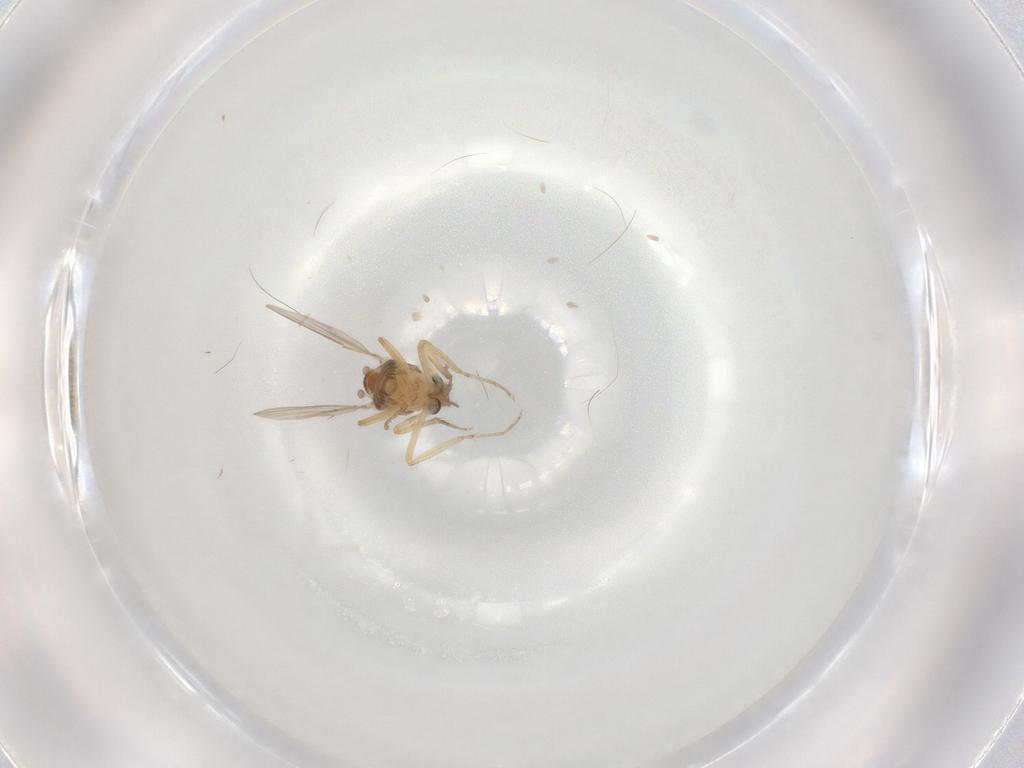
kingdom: Animalia
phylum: Arthropoda
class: Insecta
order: Diptera
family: Ceratopogonidae
